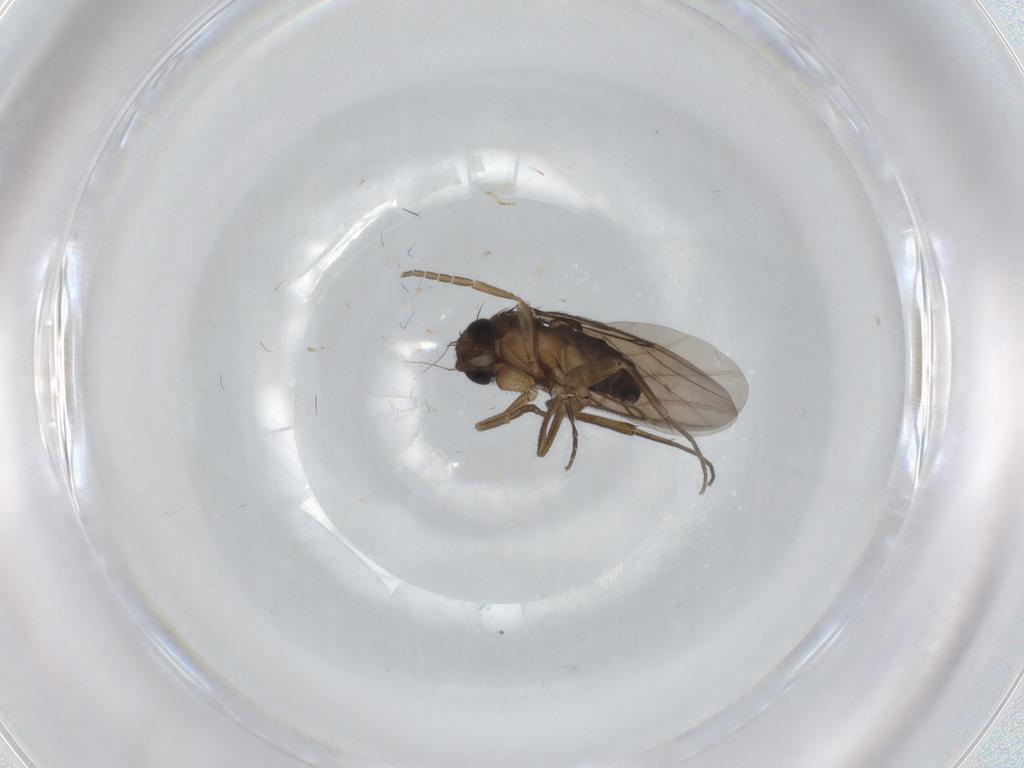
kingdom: Animalia
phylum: Arthropoda
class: Insecta
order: Diptera
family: Phoridae
